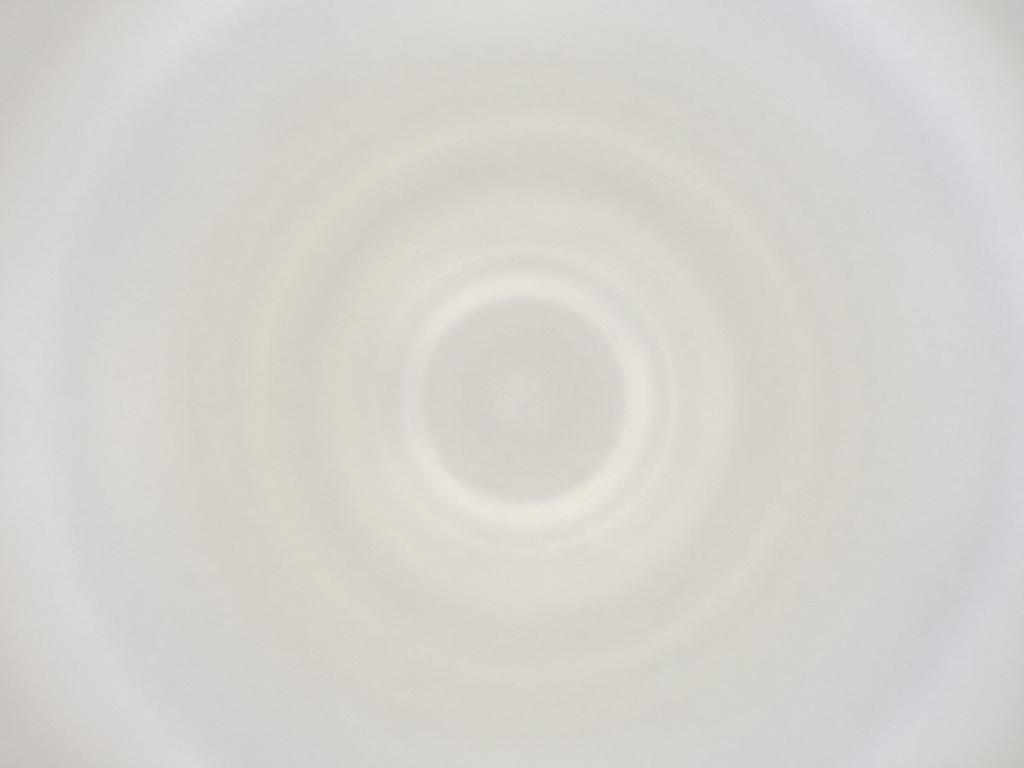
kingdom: Animalia
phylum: Arthropoda
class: Insecta
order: Diptera
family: Cecidomyiidae
